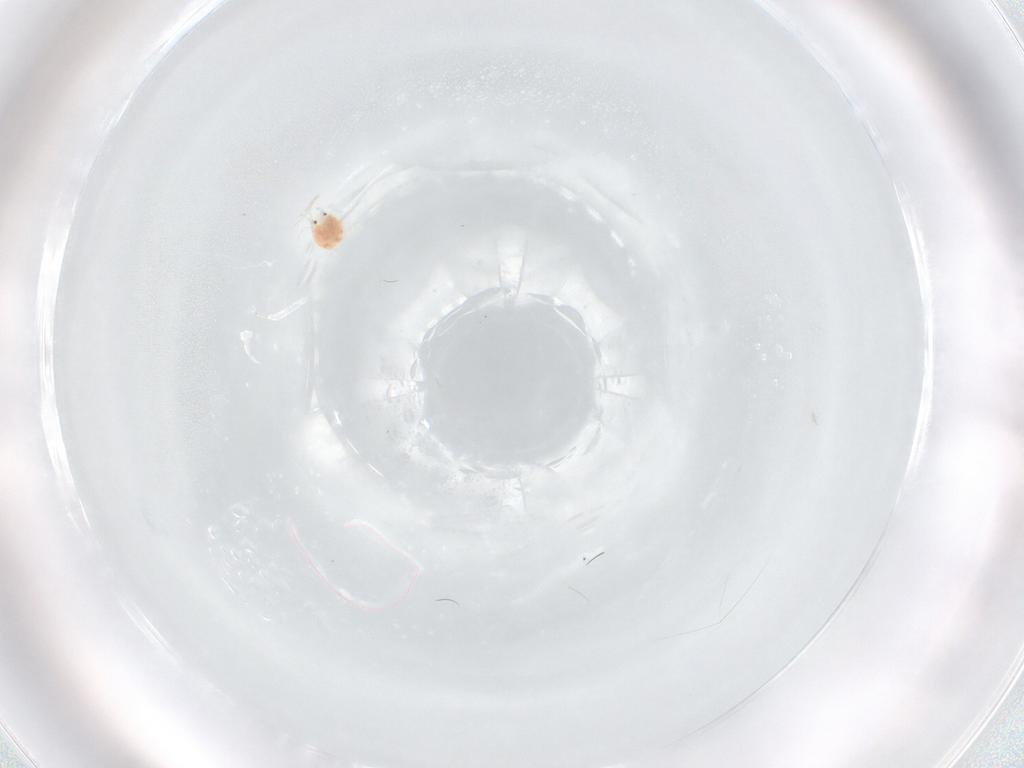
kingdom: Animalia
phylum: Arthropoda
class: Arachnida
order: Trombidiformes
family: Pionidae
